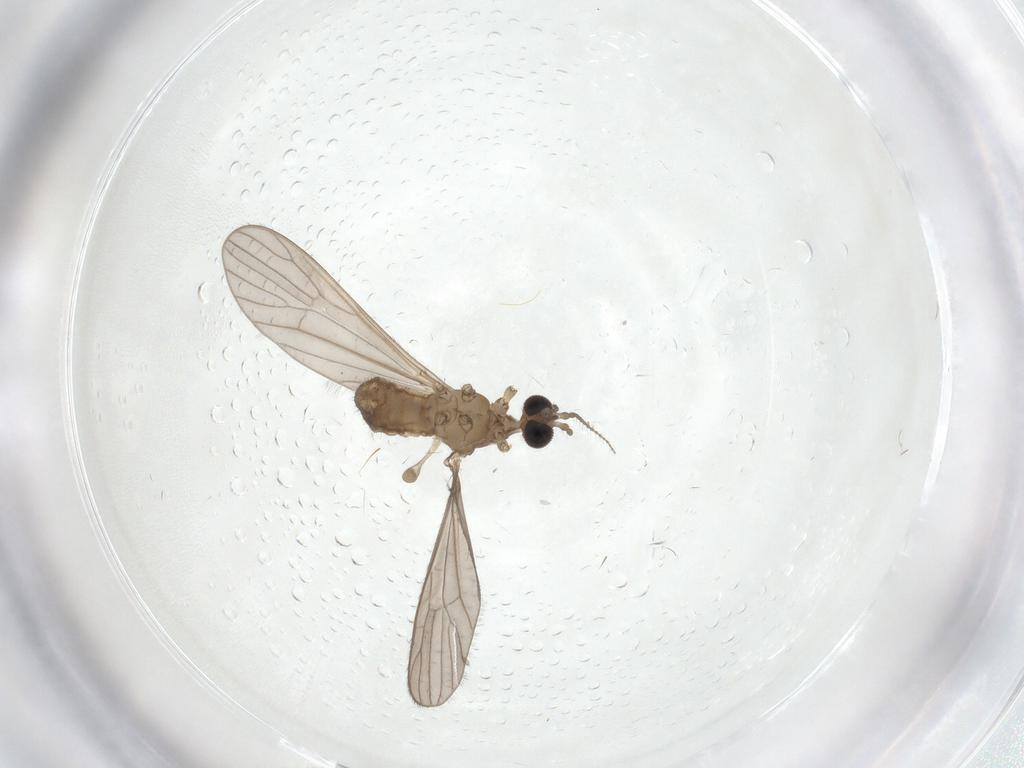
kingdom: Animalia
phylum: Arthropoda
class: Insecta
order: Diptera
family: Limoniidae
